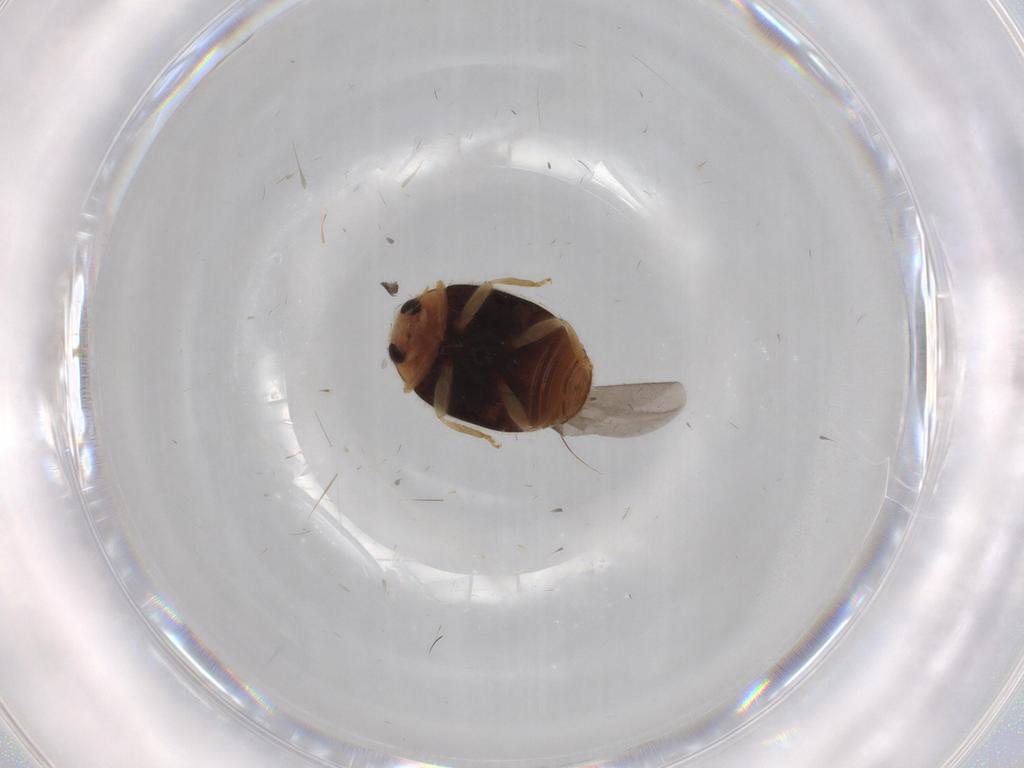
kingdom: Animalia
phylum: Arthropoda
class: Insecta
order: Coleoptera
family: Coccinellidae
